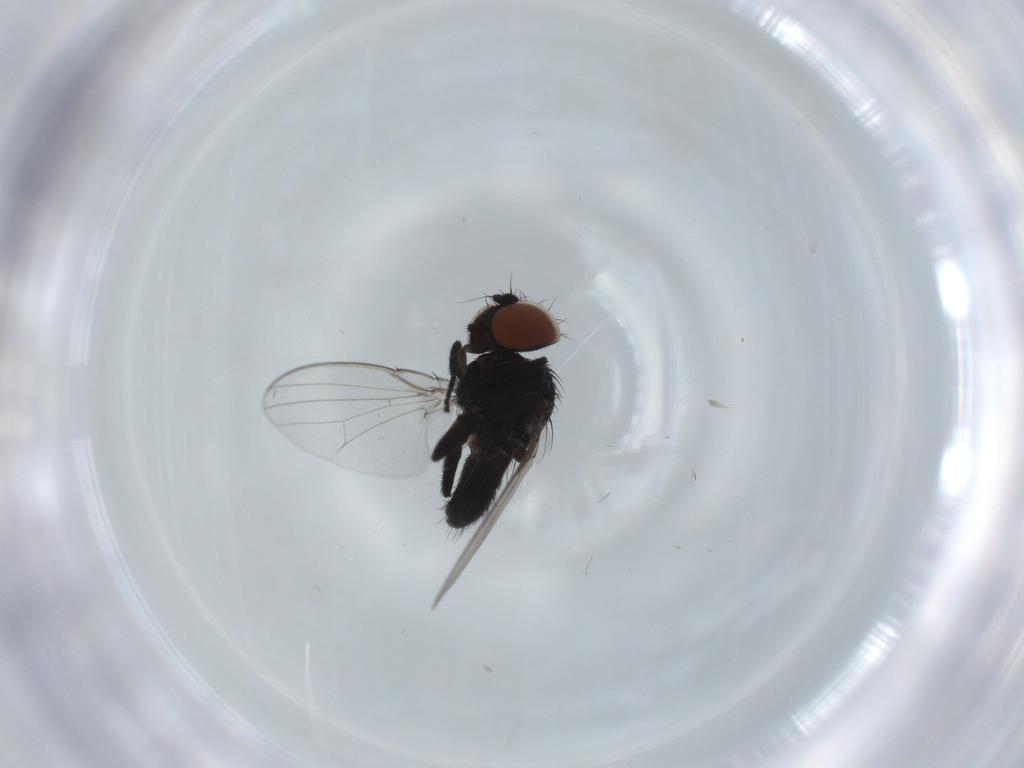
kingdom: Animalia
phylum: Arthropoda
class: Insecta
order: Diptera
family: Milichiidae
